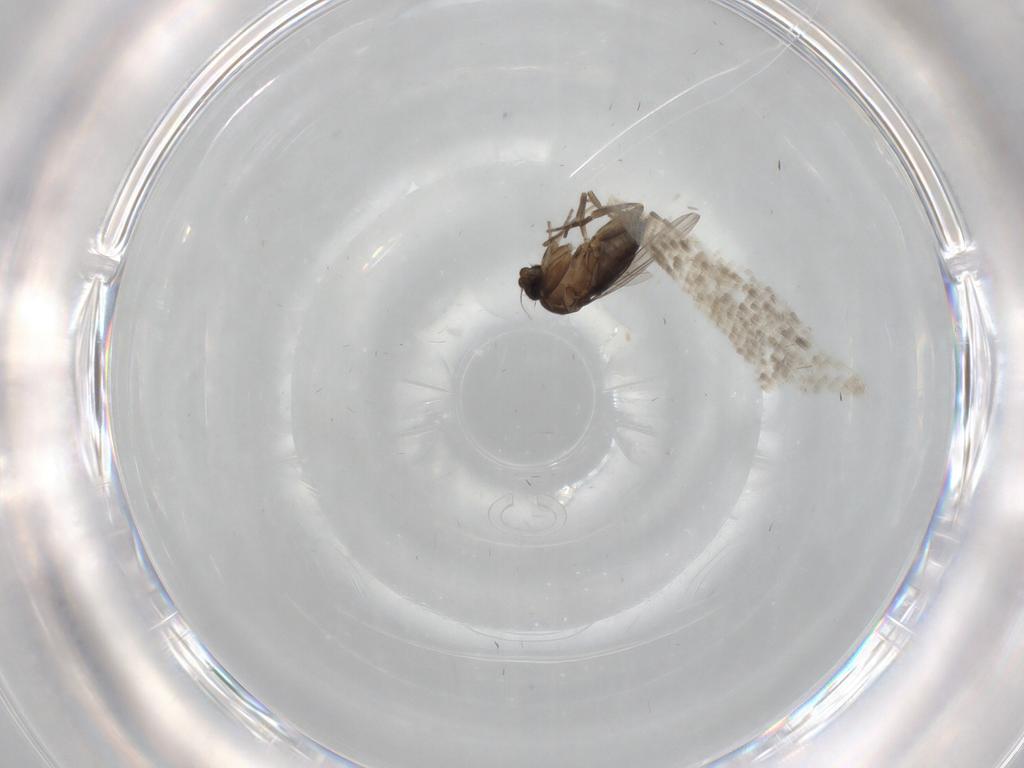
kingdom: Animalia
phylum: Arthropoda
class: Insecta
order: Diptera
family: Psychodidae
